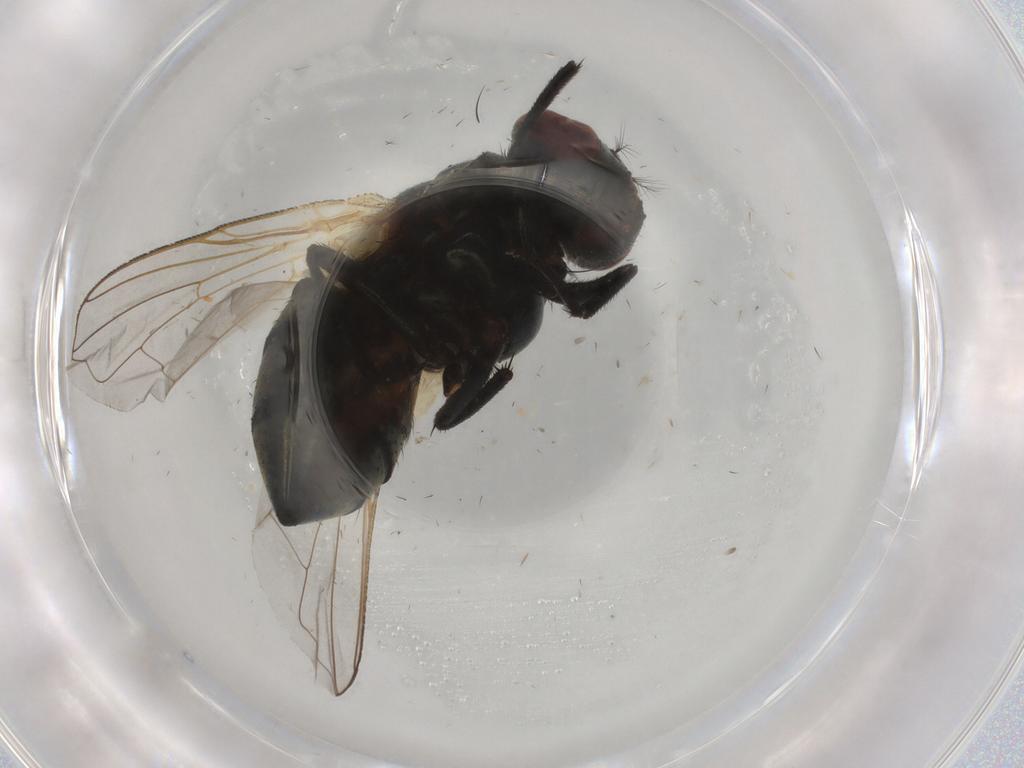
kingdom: Animalia
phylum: Arthropoda
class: Insecta
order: Diptera
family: Muscidae
